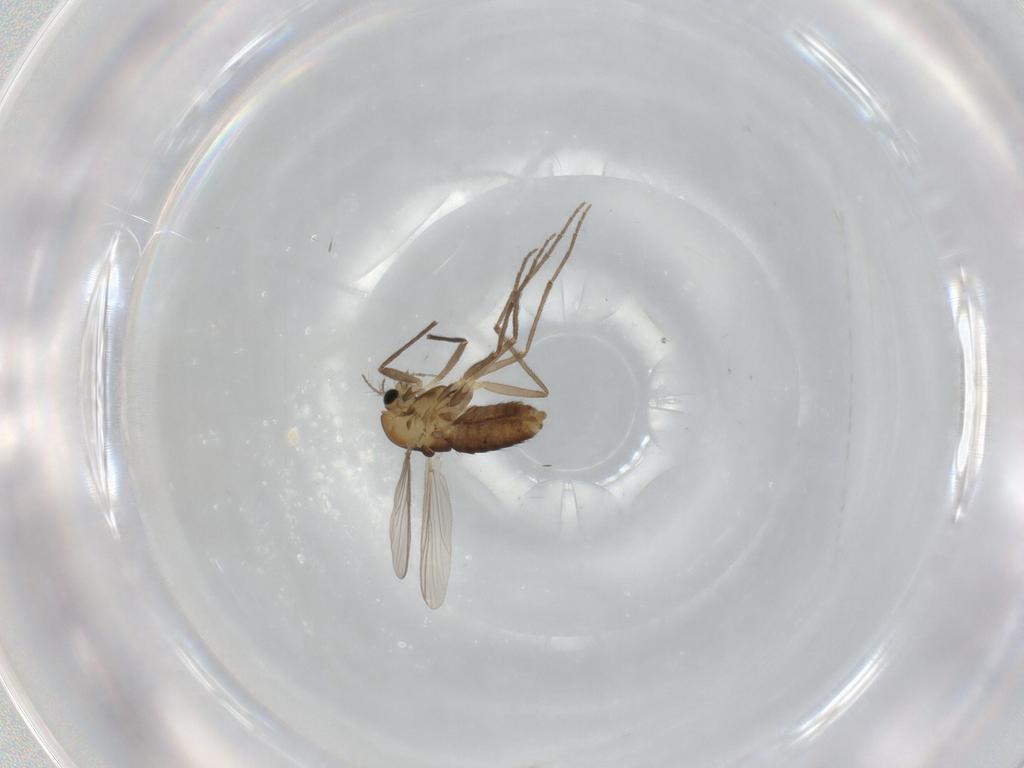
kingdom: Animalia
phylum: Arthropoda
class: Insecta
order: Diptera
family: Chironomidae
